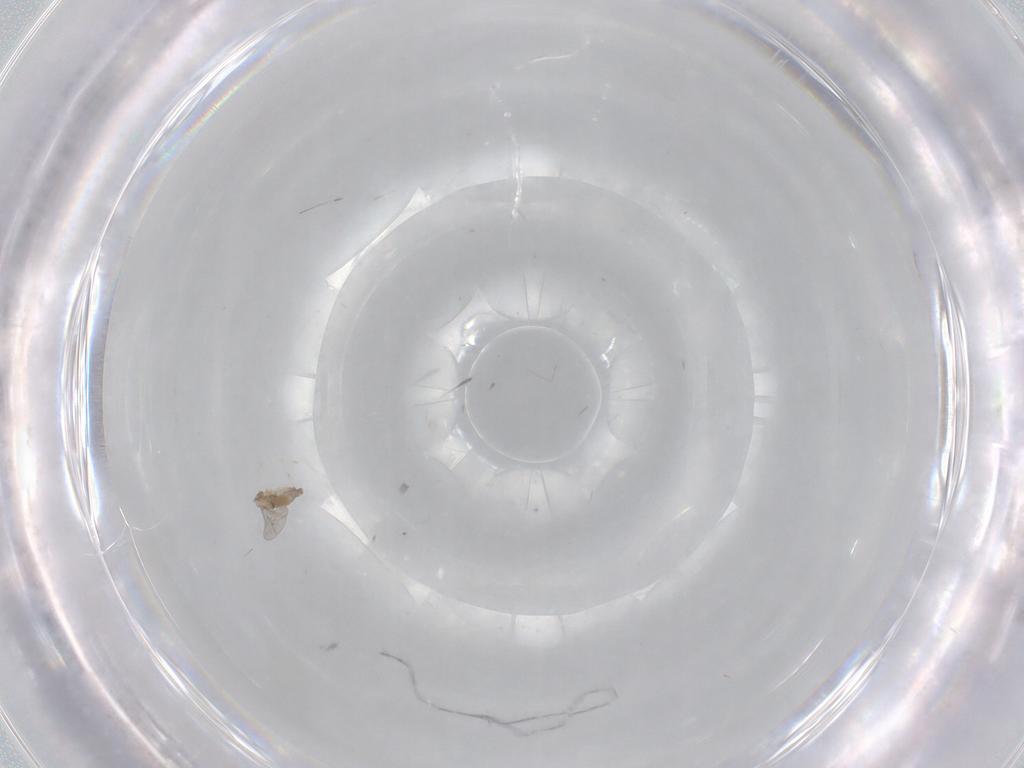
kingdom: Animalia
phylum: Arthropoda
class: Insecta
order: Diptera
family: Cecidomyiidae
